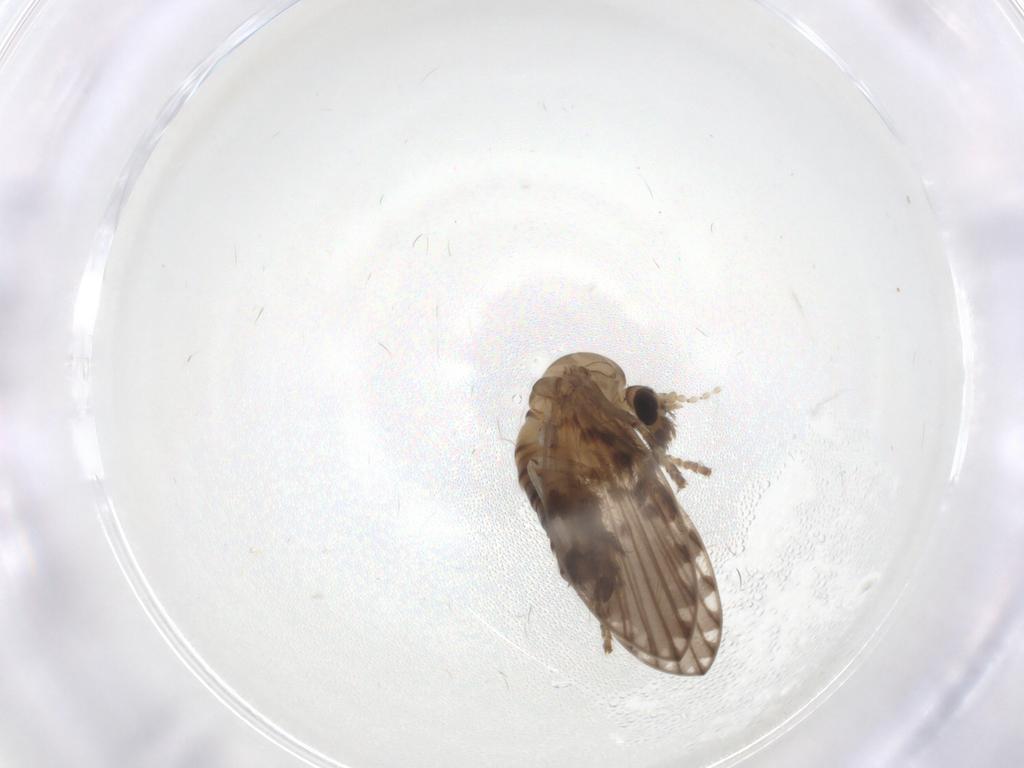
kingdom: Animalia
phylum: Arthropoda
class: Insecta
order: Diptera
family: Psychodidae
